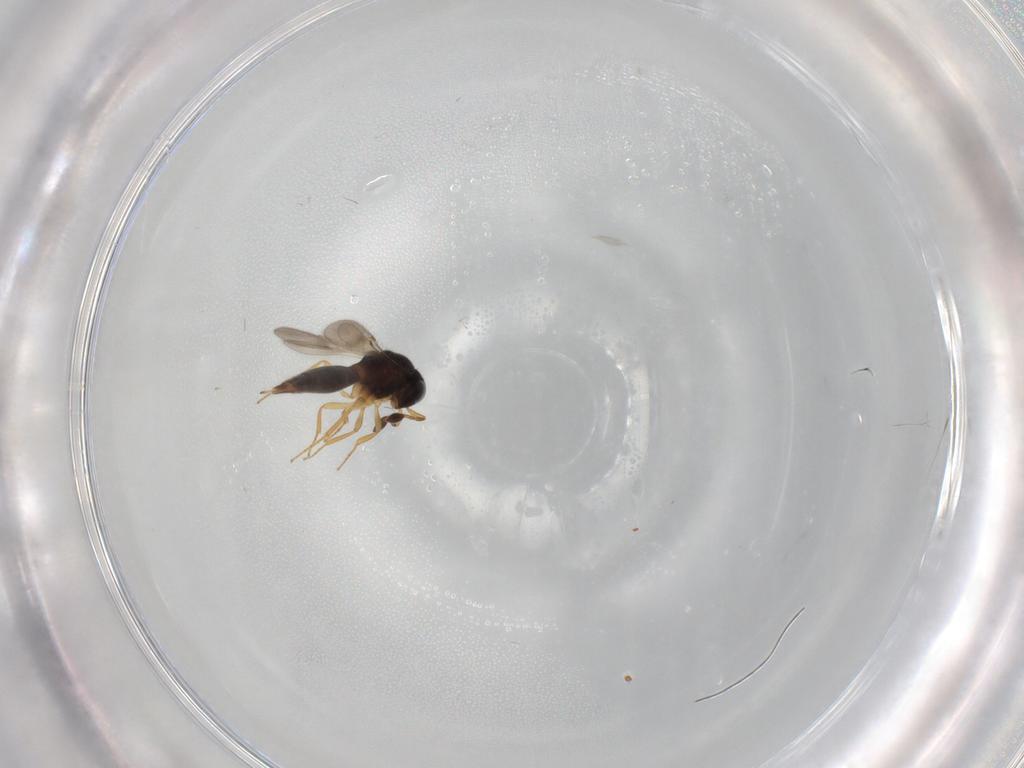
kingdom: Animalia
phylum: Arthropoda
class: Insecta
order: Hymenoptera
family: Scelionidae
